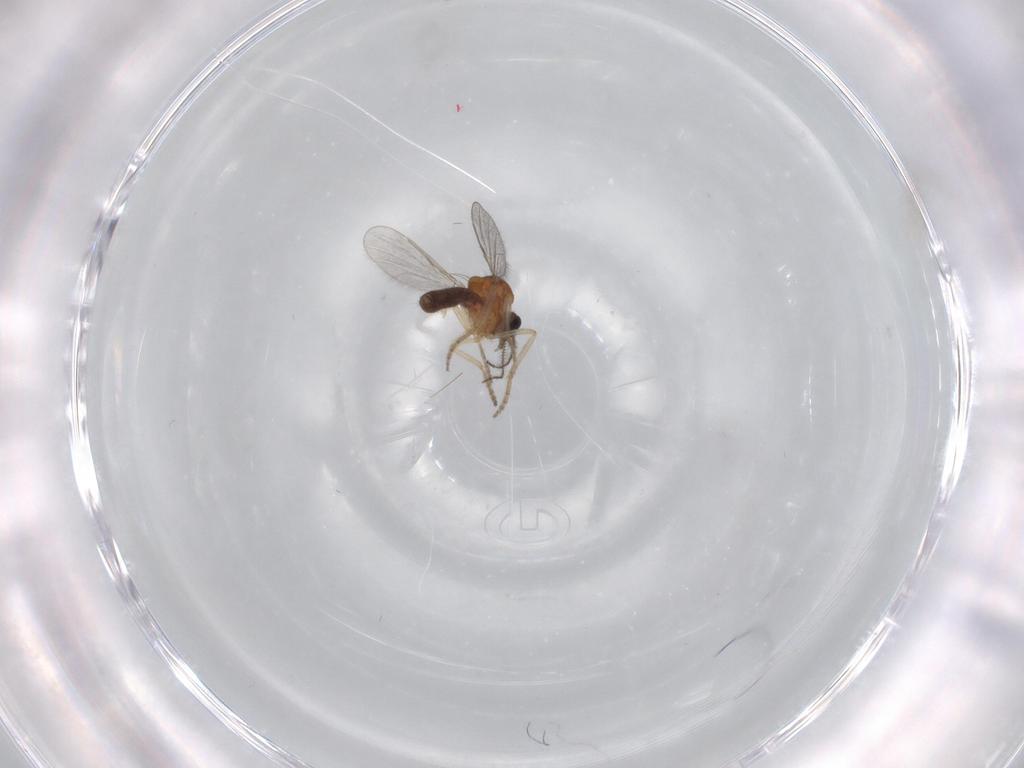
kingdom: Animalia
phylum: Arthropoda
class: Insecta
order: Diptera
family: Ceratopogonidae
